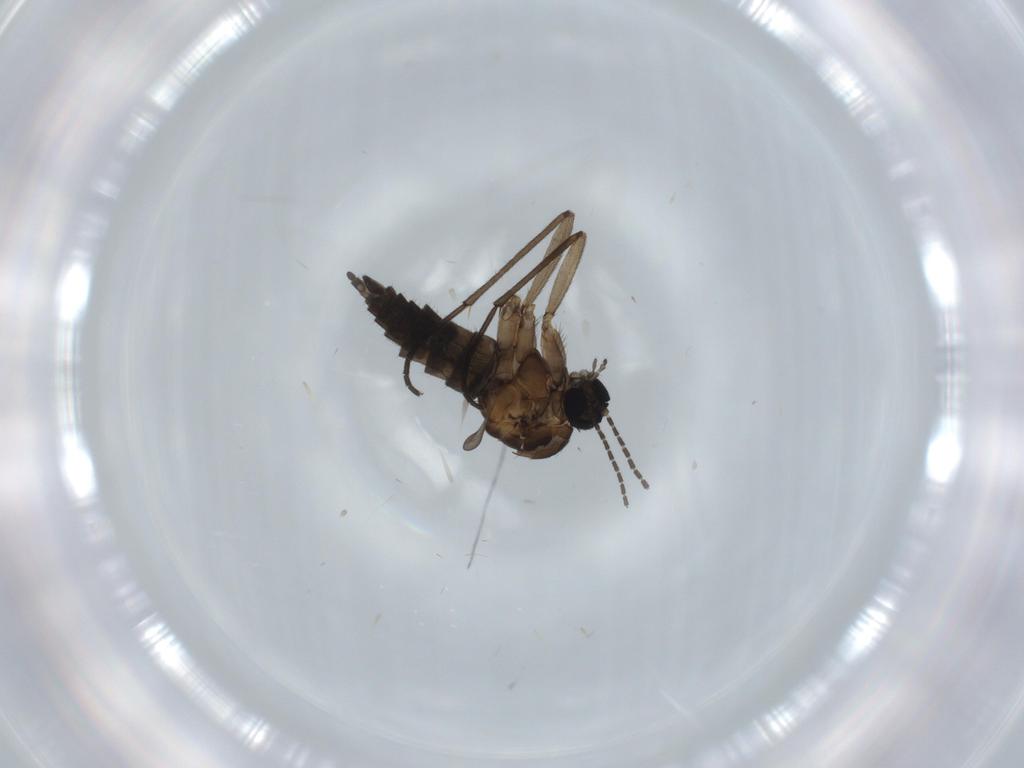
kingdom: Animalia
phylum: Arthropoda
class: Insecta
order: Diptera
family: Sciaridae
